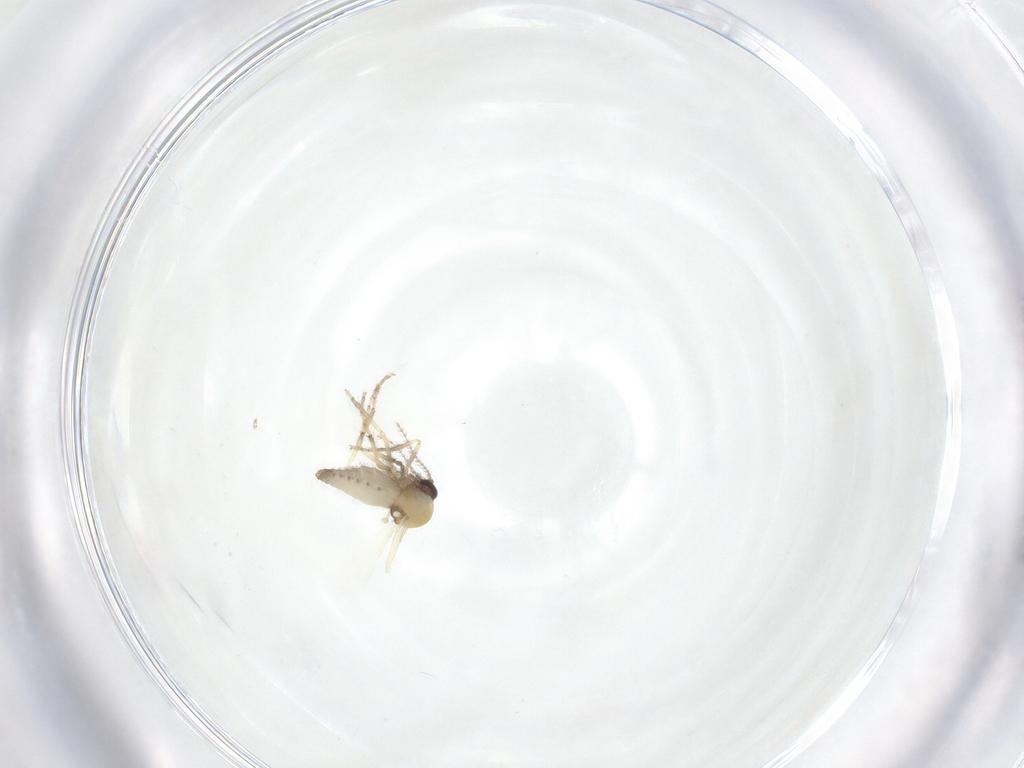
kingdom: Animalia
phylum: Arthropoda
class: Insecta
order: Diptera
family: Ceratopogonidae
